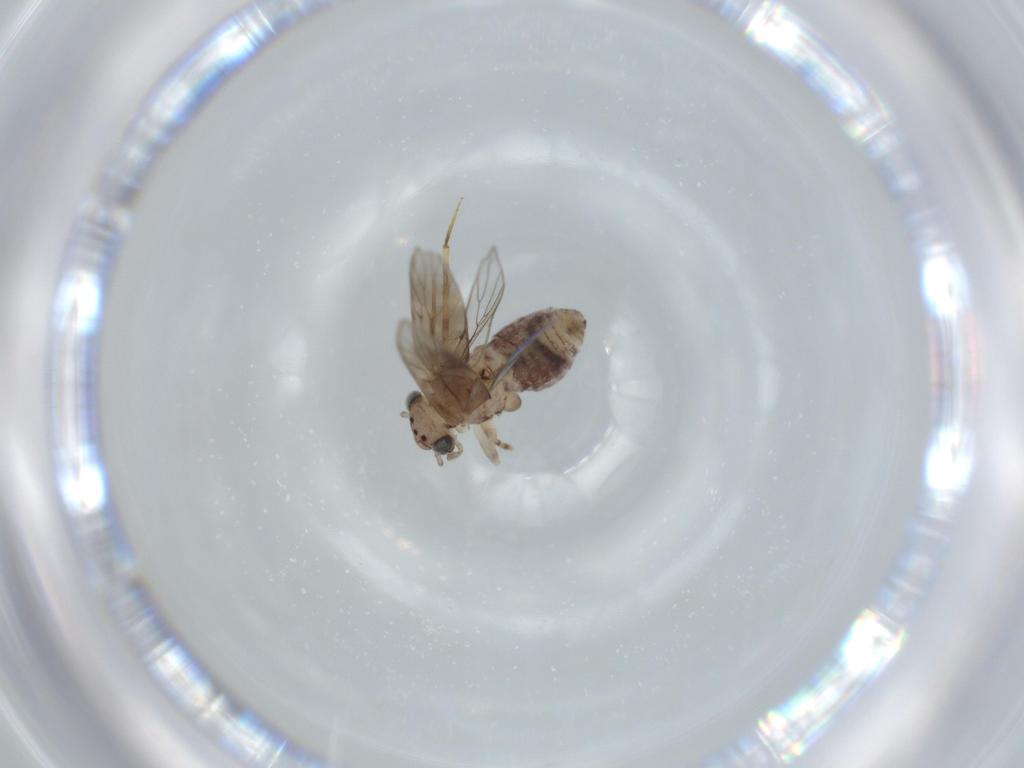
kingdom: Animalia
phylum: Arthropoda
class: Insecta
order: Psocodea
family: Lepidopsocidae
